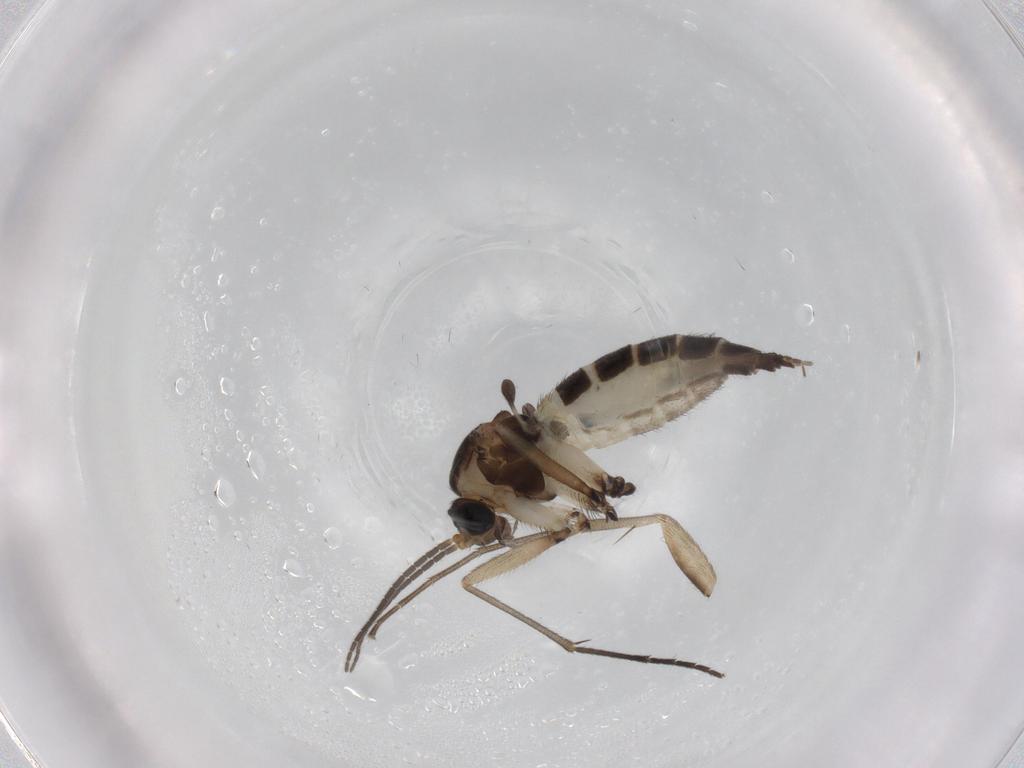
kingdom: Animalia
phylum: Arthropoda
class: Insecta
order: Diptera
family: Sciaridae
